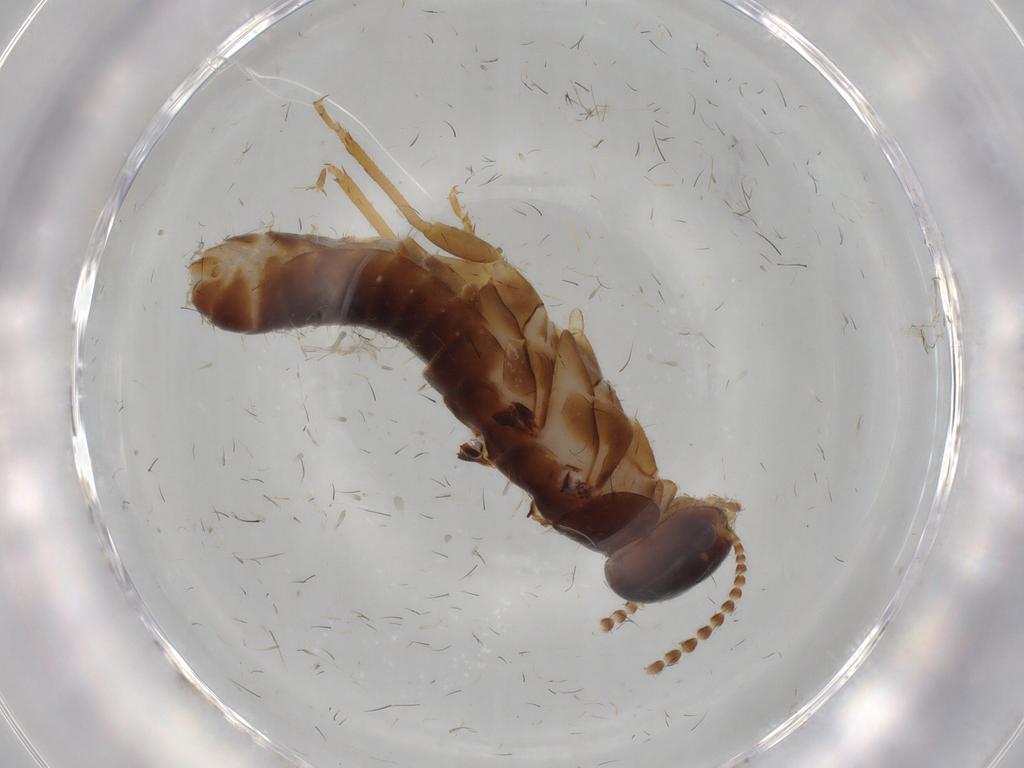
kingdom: Animalia
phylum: Arthropoda
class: Insecta
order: Blattodea
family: Kalotermitidae
